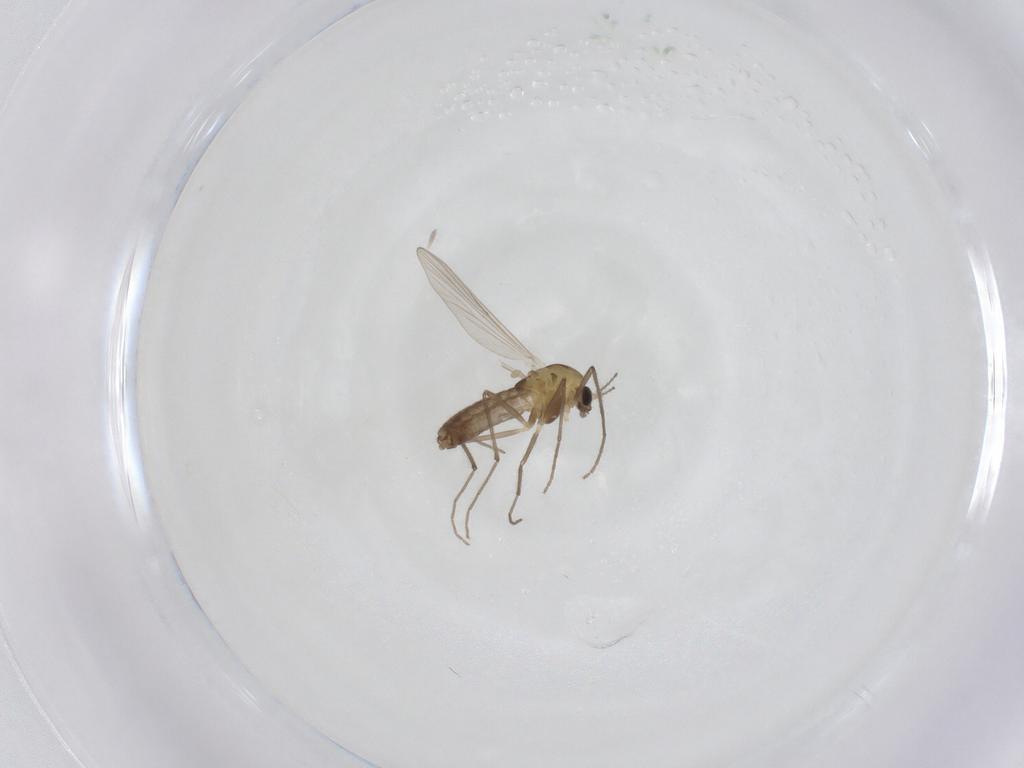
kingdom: Animalia
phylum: Arthropoda
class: Insecta
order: Diptera
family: Chironomidae
